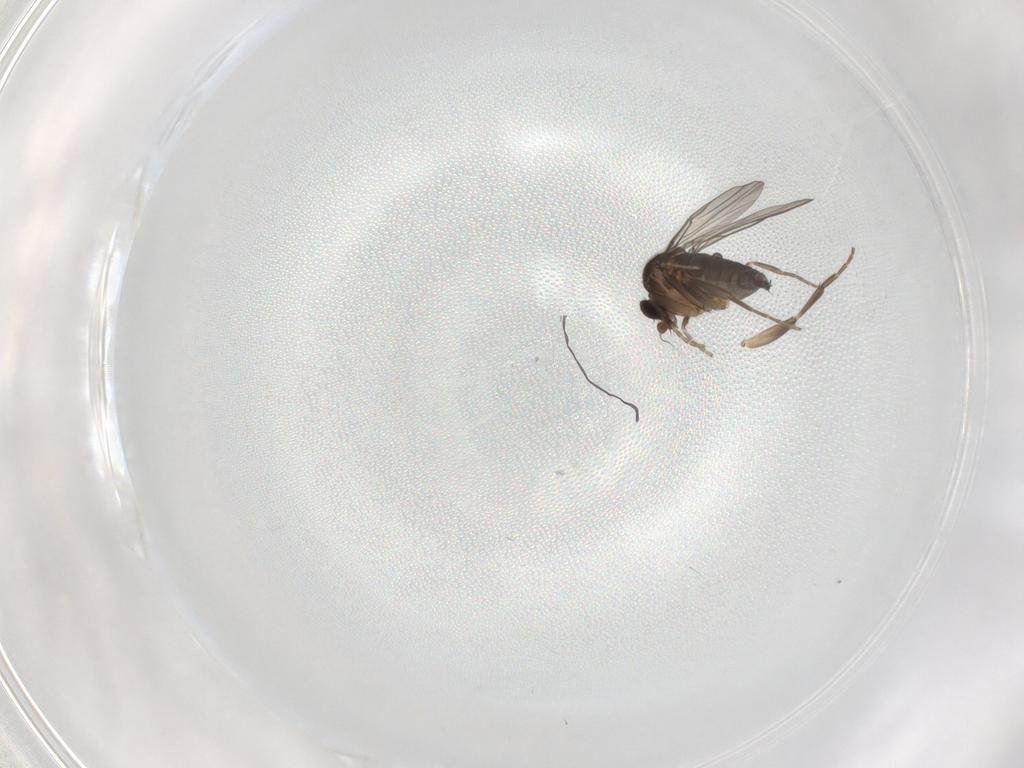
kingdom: Animalia
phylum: Arthropoda
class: Insecta
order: Diptera
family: Phoridae
